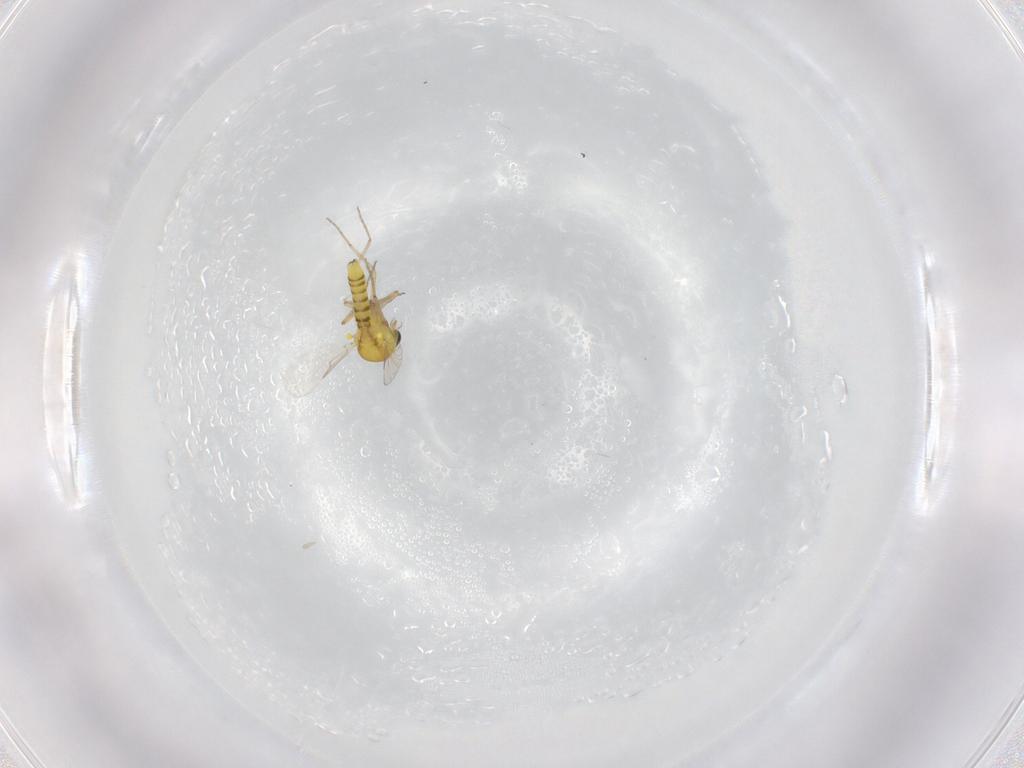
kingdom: Animalia
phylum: Arthropoda
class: Insecta
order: Diptera
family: Ceratopogonidae
